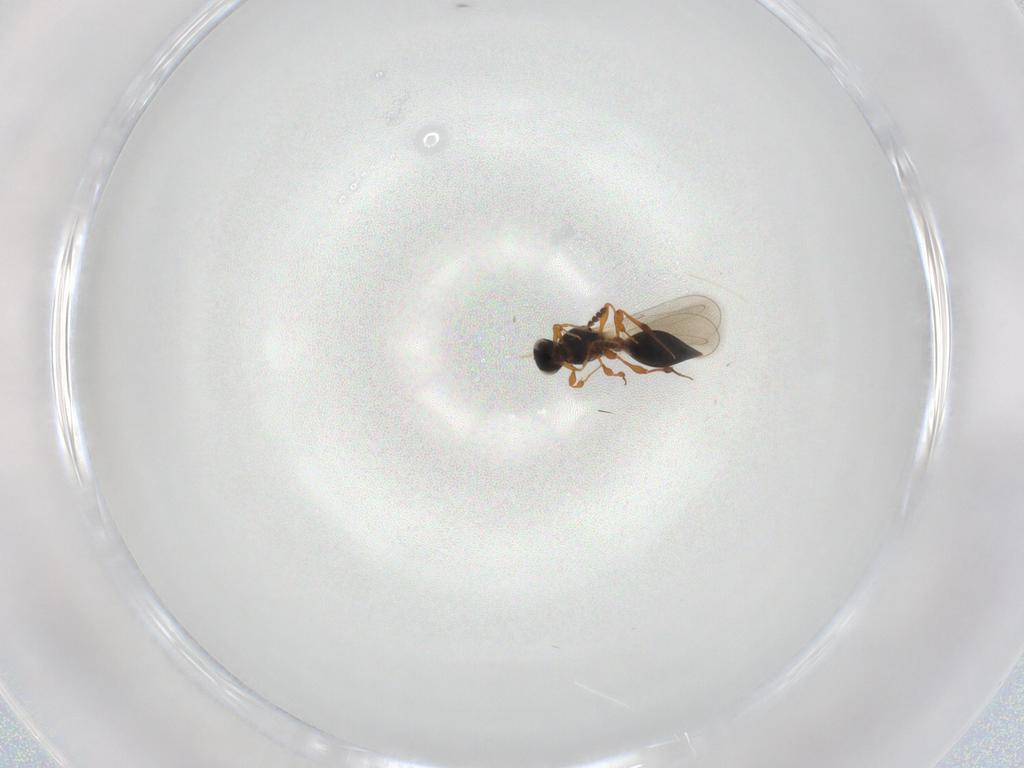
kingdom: Animalia
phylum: Arthropoda
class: Insecta
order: Hymenoptera
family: Platygastridae
